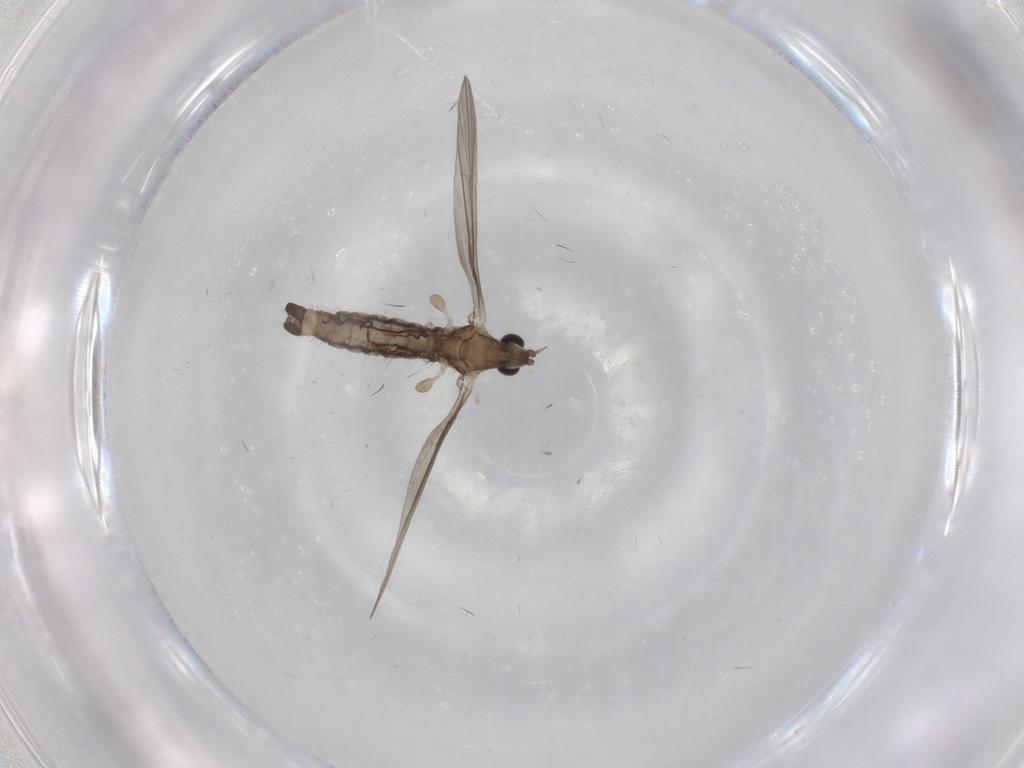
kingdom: Animalia
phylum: Arthropoda
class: Insecta
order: Diptera
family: Limoniidae
